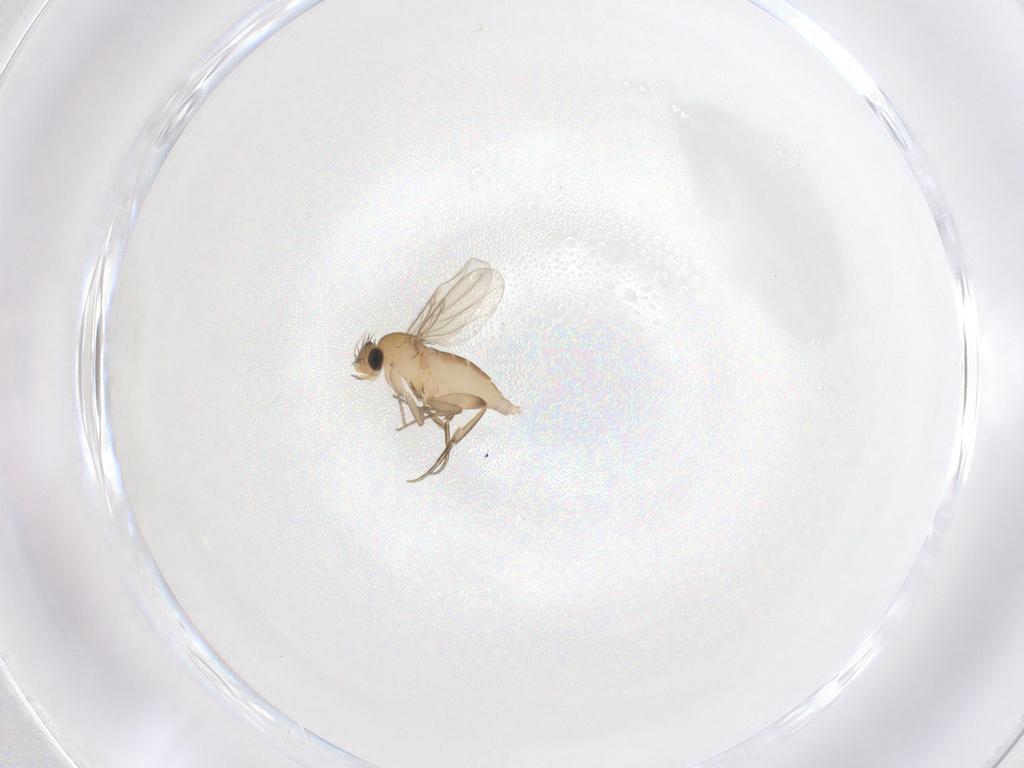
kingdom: Animalia
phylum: Arthropoda
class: Insecta
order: Diptera
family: Phoridae
